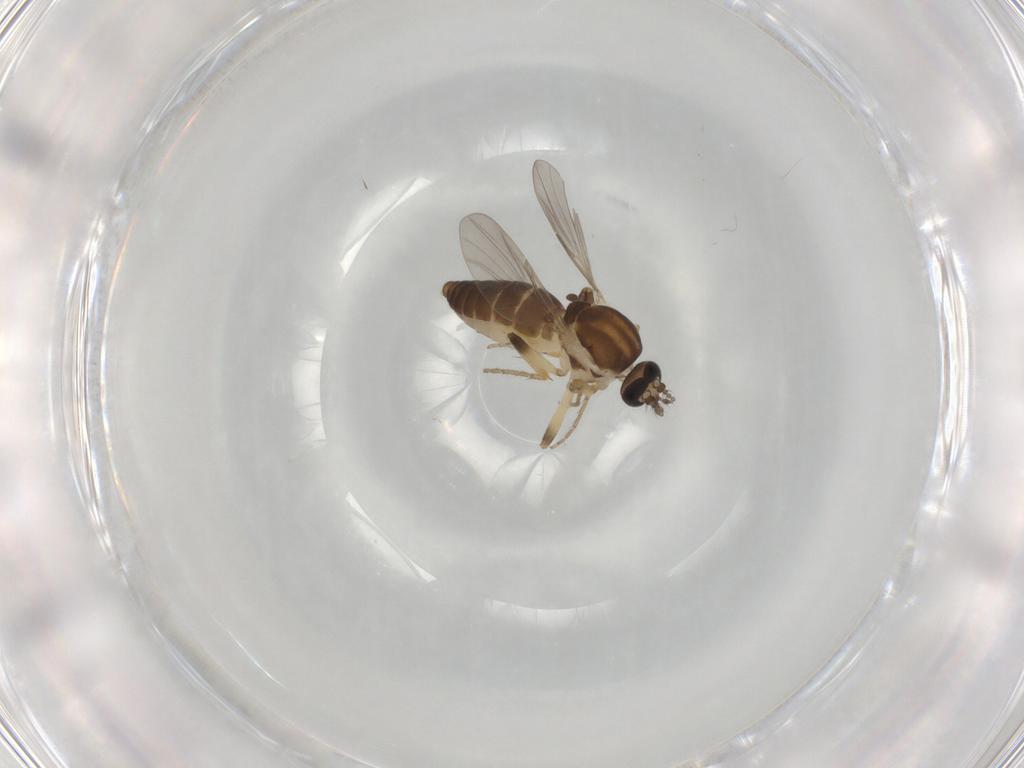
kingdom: Animalia
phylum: Arthropoda
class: Insecta
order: Diptera
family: Ceratopogonidae
